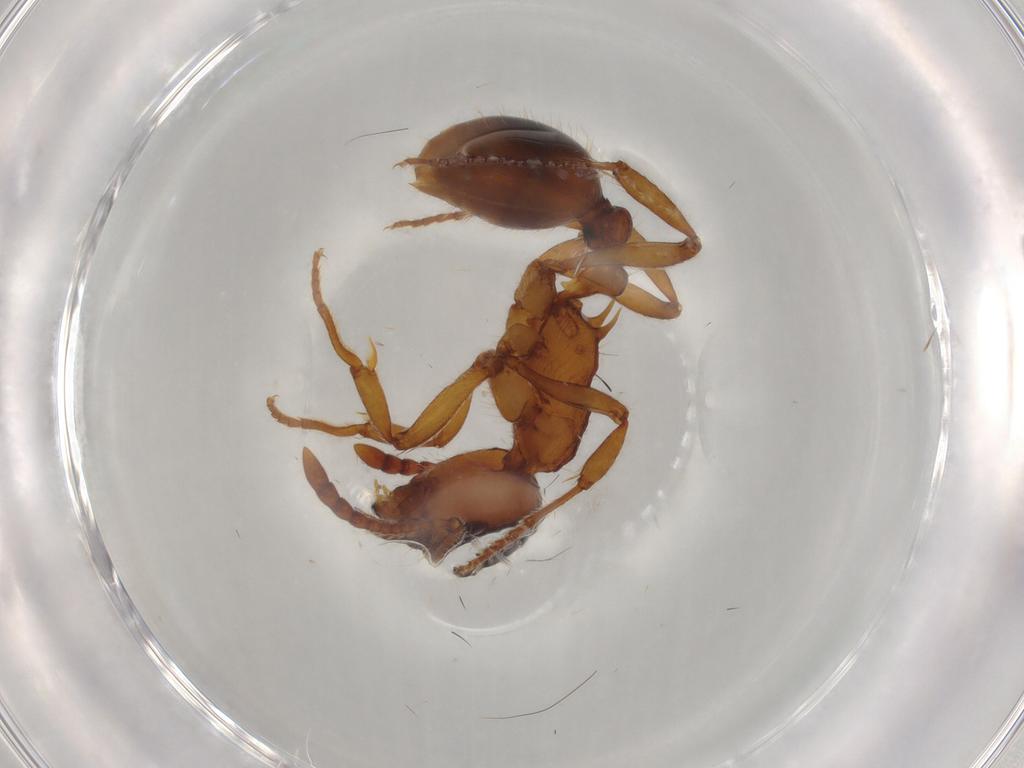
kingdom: Animalia
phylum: Arthropoda
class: Insecta
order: Hymenoptera
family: Formicidae
